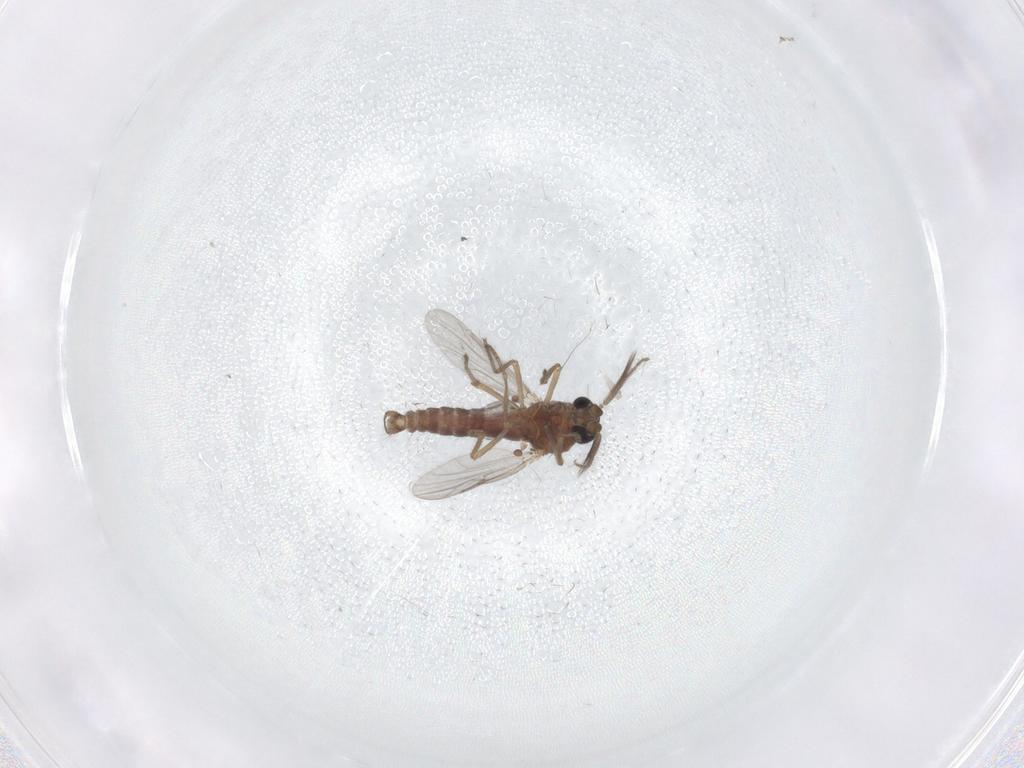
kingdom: Animalia
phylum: Arthropoda
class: Insecta
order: Diptera
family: Ceratopogonidae
